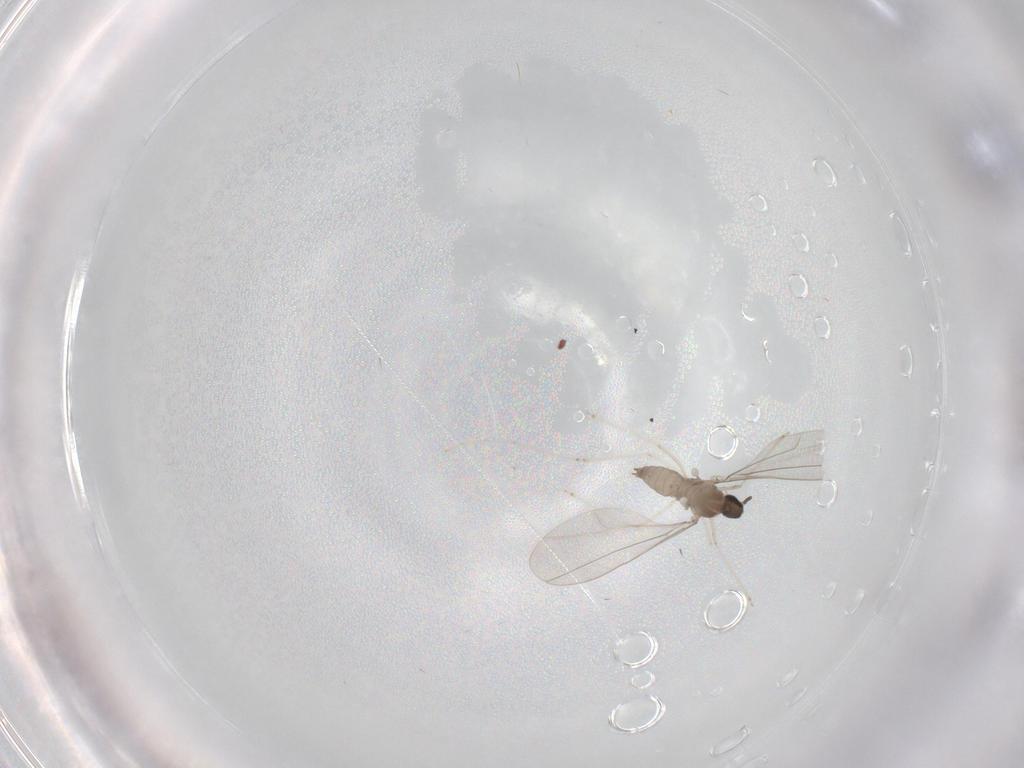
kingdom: Animalia
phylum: Arthropoda
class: Insecta
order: Diptera
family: Cecidomyiidae
